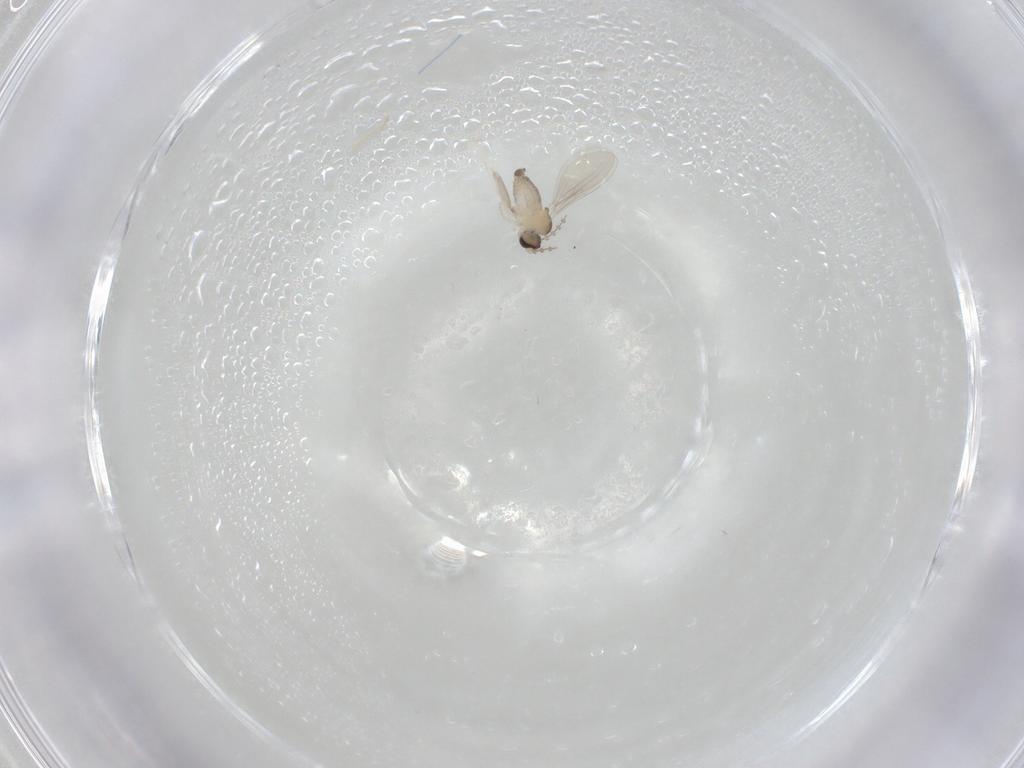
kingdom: Animalia
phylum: Arthropoda
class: Insecta
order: Diptera
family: Cecidomyiidae
